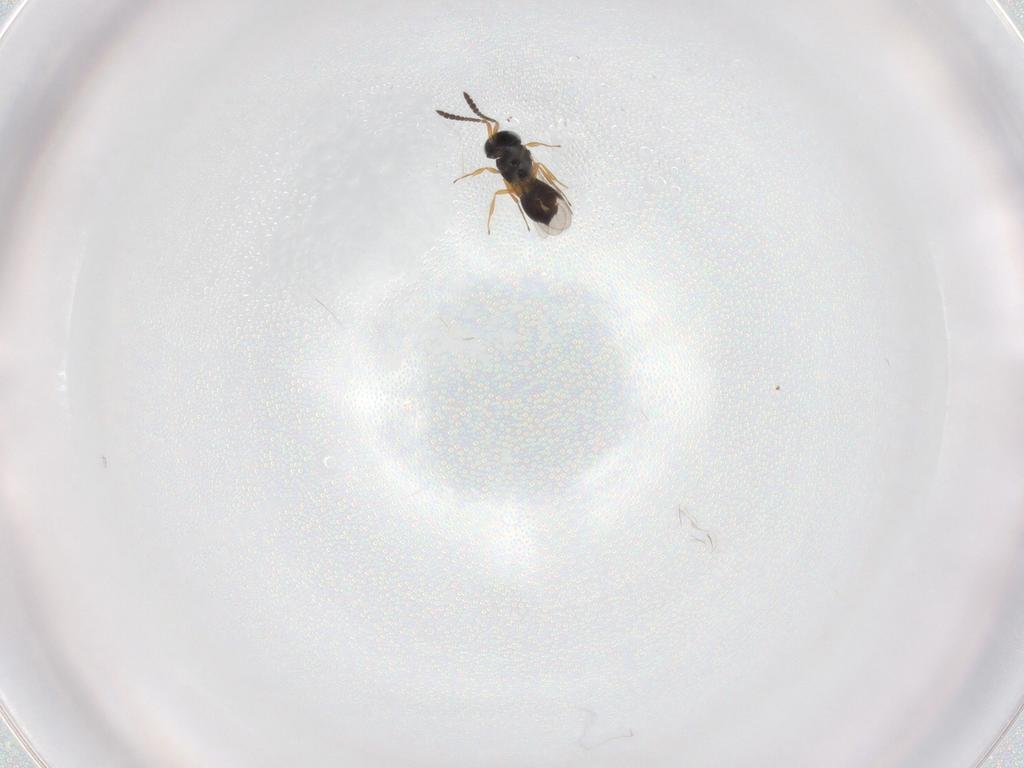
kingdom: Animalia
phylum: Arthropoda
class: Insecta
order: Hymenoptera
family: Scelionidae
